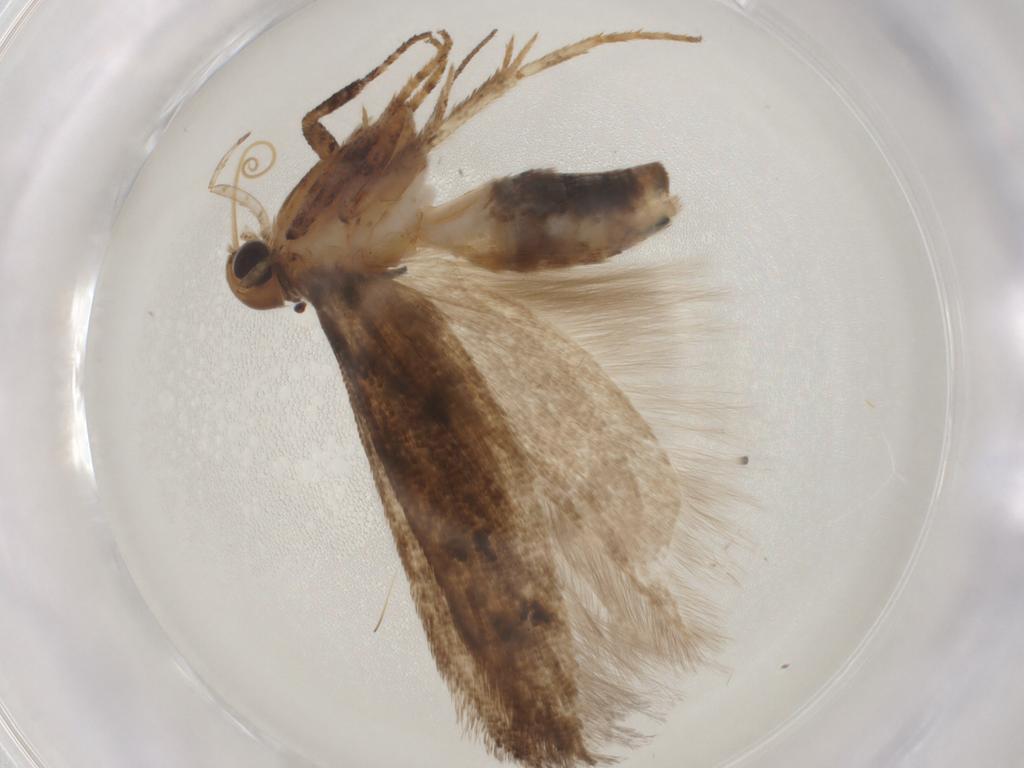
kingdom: Animalia
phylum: Arthropoda
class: Insecta
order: Lepidoptera
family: Gelechiidae
